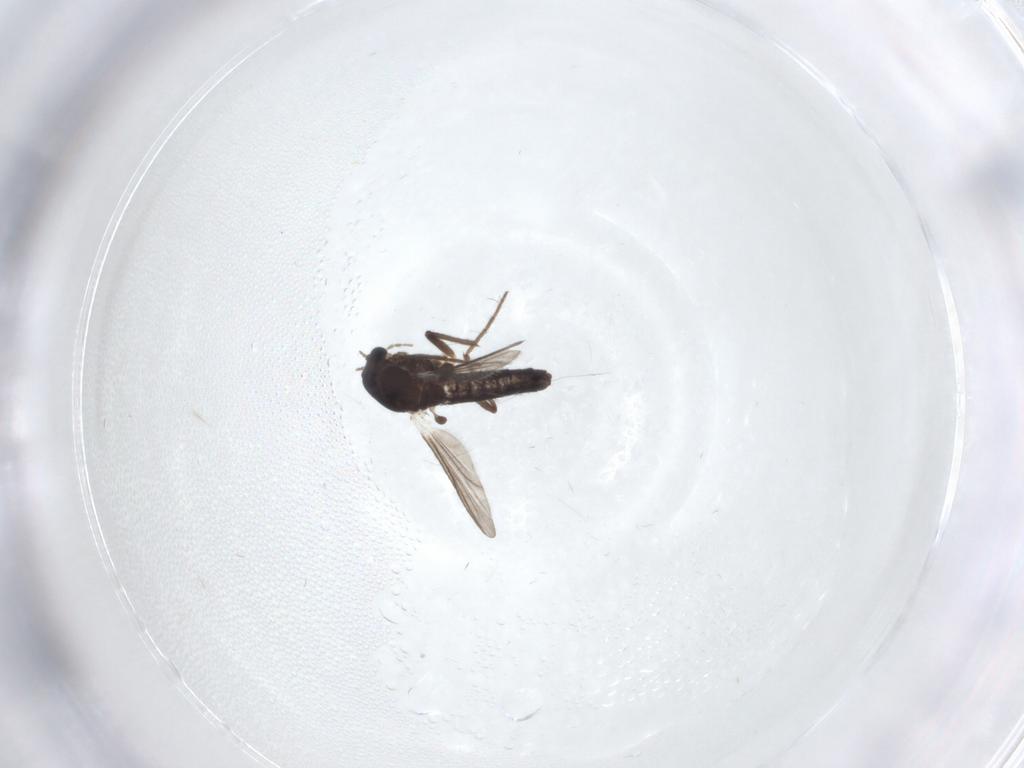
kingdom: Animalia
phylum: Arthropoda
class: Insecta
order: Diptera
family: Chironomidae
